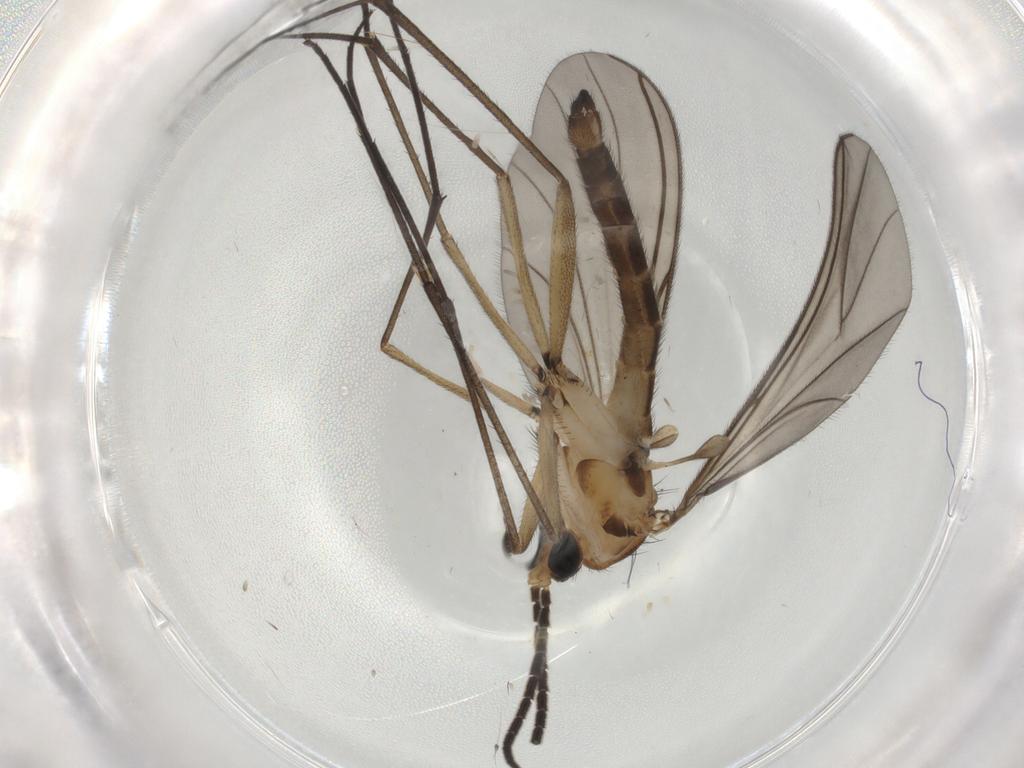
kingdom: Animalia
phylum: Arthropoda
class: Insecta
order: Diptera
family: Sciaridae
